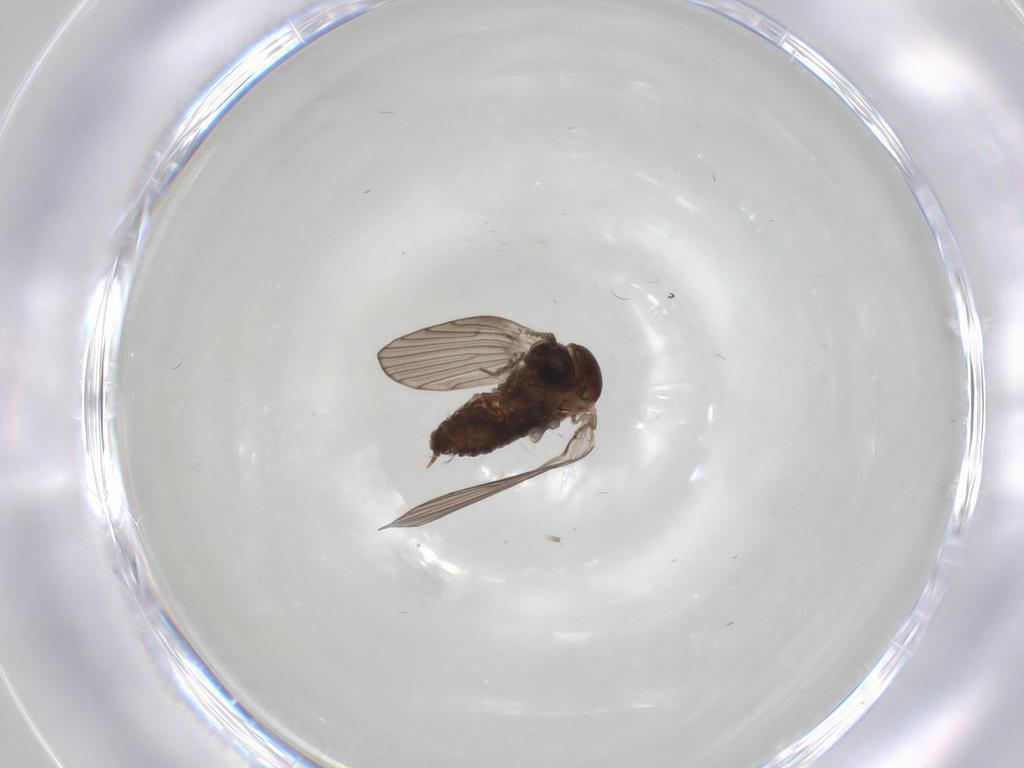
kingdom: Animalia
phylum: Arthropoda
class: Insecta
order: Diptera
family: Psychodidae
